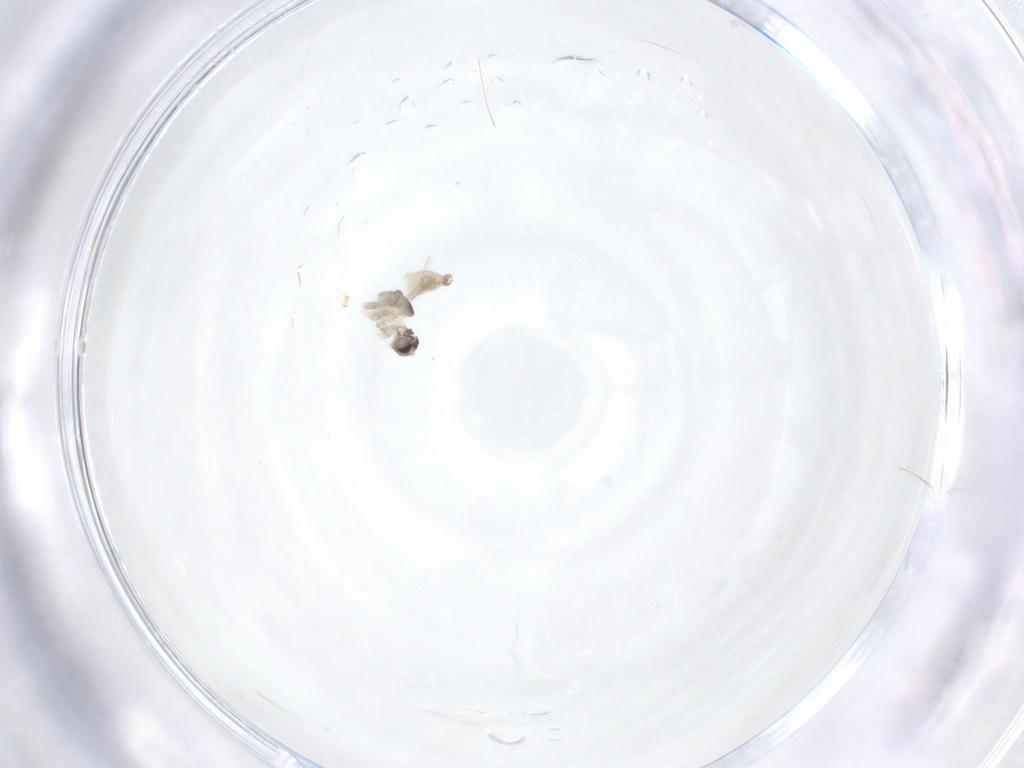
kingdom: Animalia
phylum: Arthropoda
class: Insecta
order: Diptera
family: Cecidomyiidae
